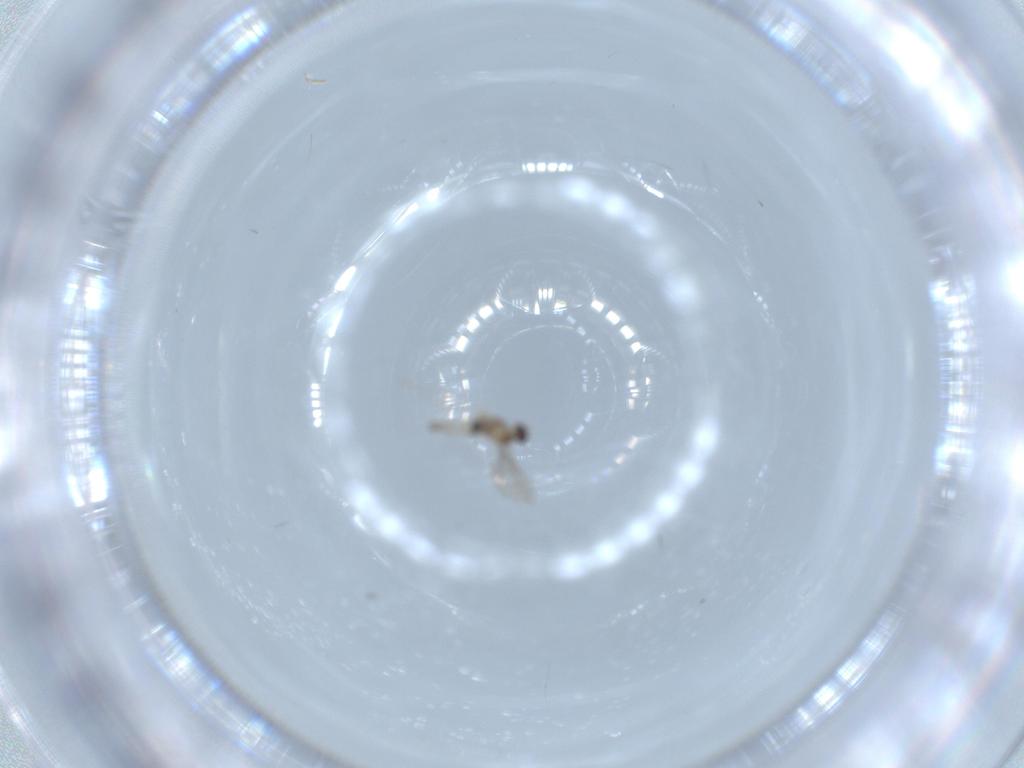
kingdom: Animalia
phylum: Arthropoda
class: Insecta
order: Diptera
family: Cecidomyiidae
